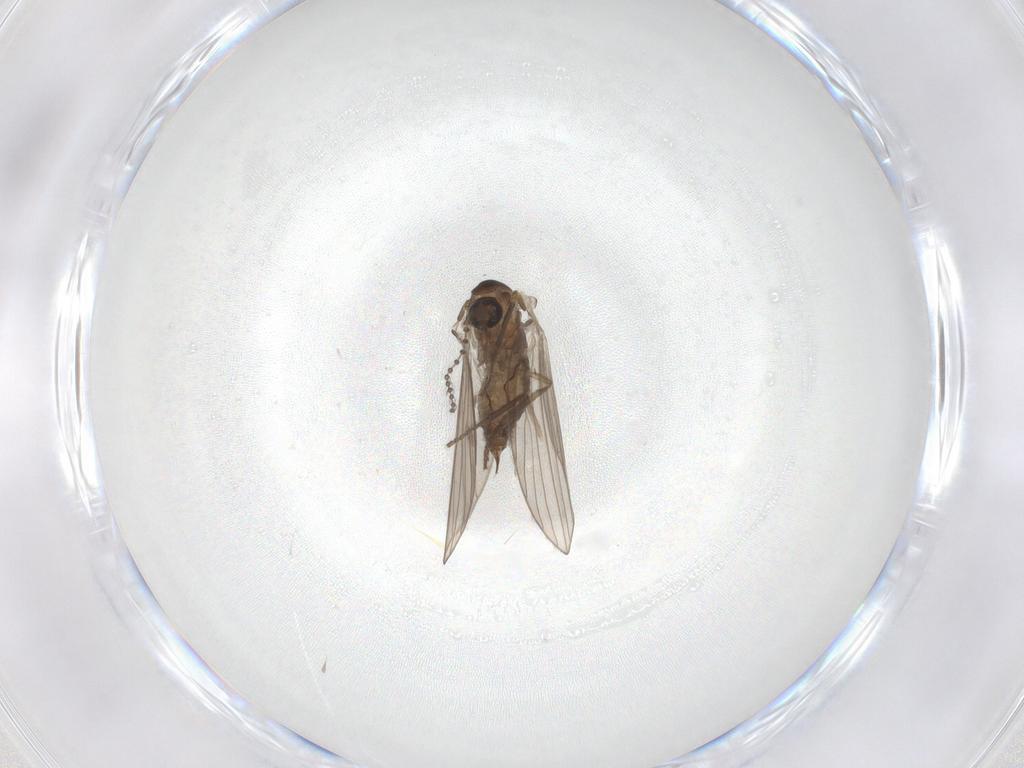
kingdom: Animalia
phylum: Arthropoda
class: Insecta
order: Diptera
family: Psychodidae
